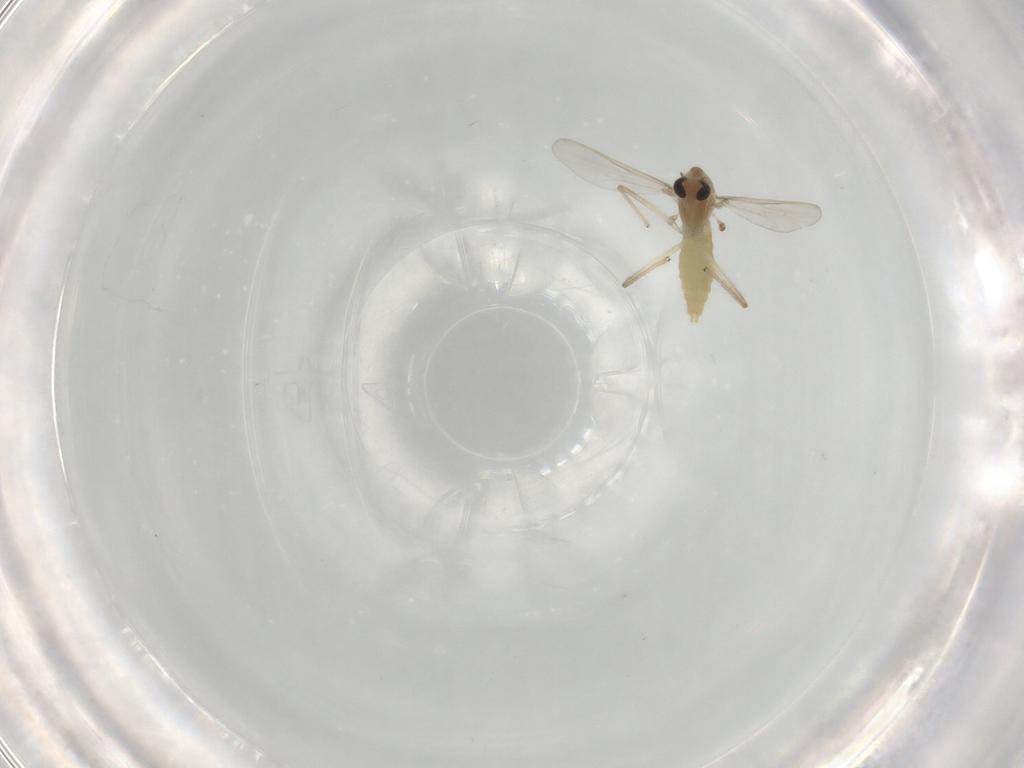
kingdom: Animalia
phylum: Arthropoda
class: Insecta
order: Diptera
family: Chironomidae
